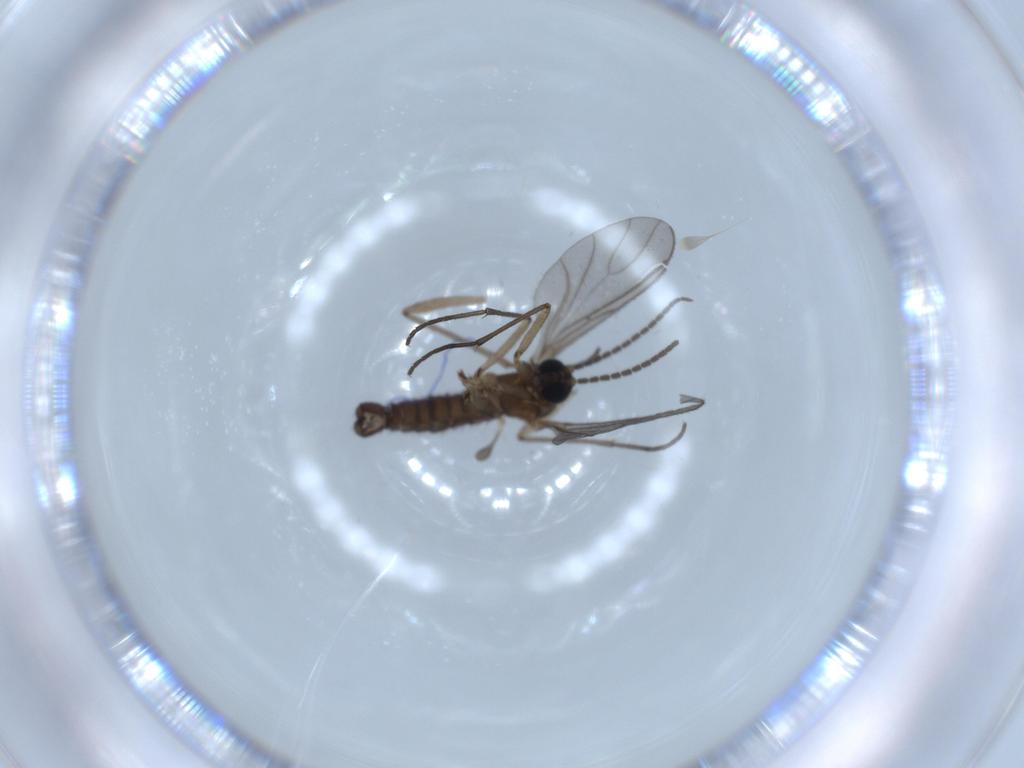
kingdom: Animalia
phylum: Arthropoda
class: Insecta
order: Diptera
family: Sciaridae
